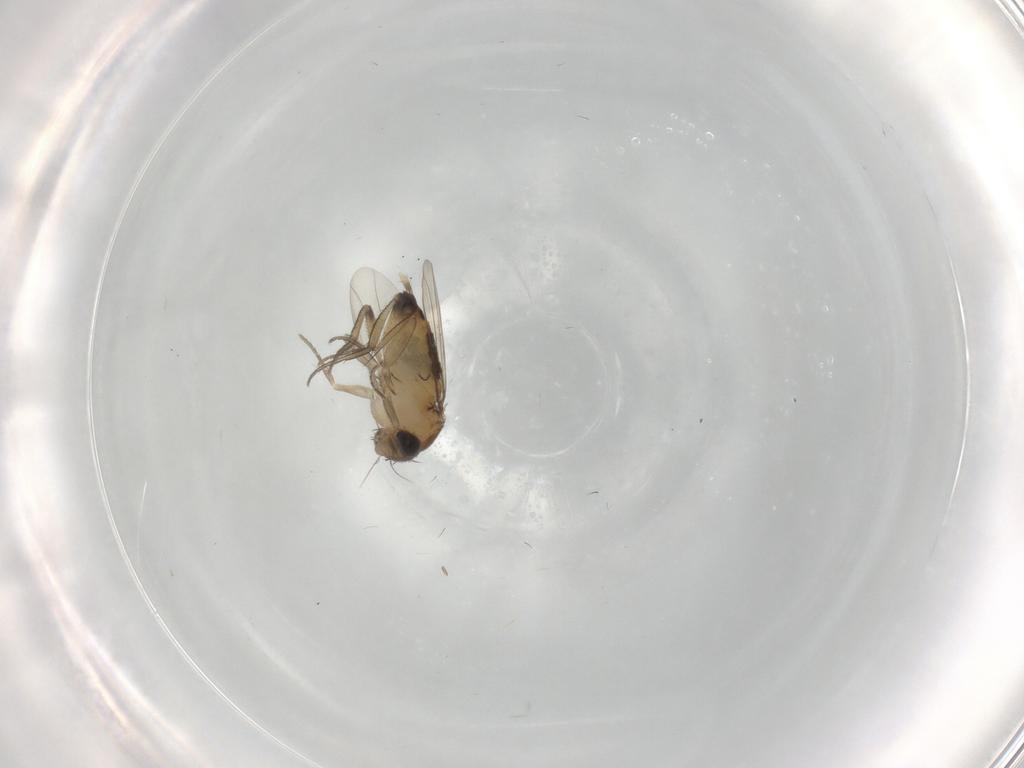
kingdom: Animalia
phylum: Arthropoda
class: Insecta
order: Diptera
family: Phoridae
